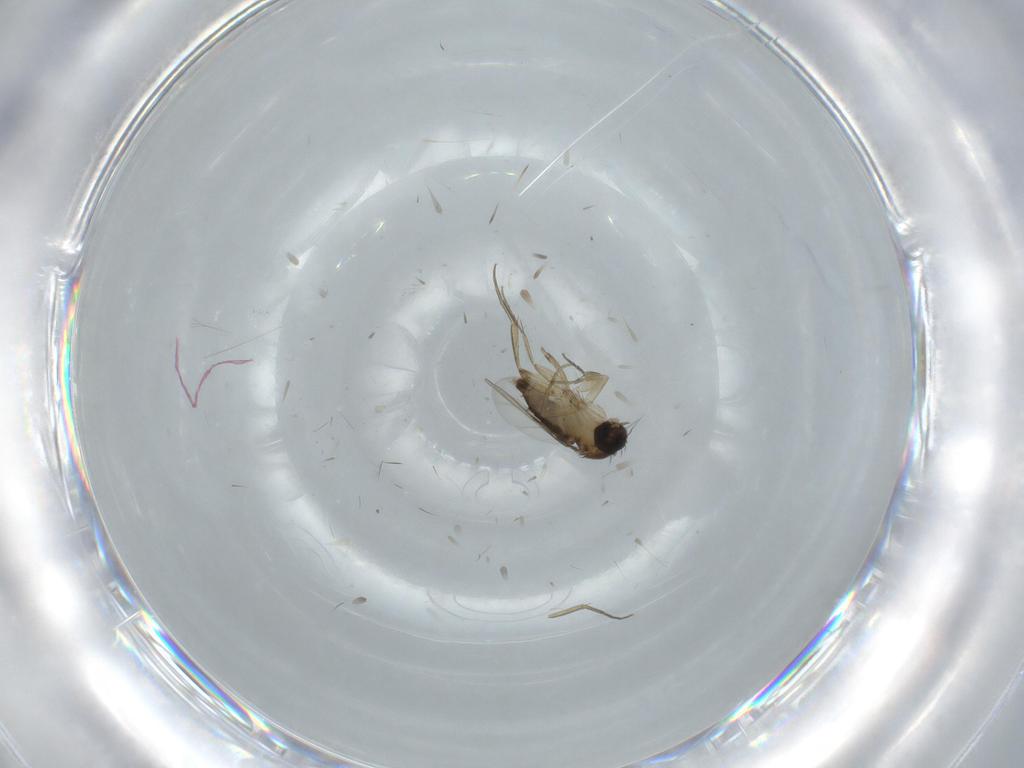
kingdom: Animalia
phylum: Arthropoda
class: Insecta
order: Diptera
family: Phoridae
